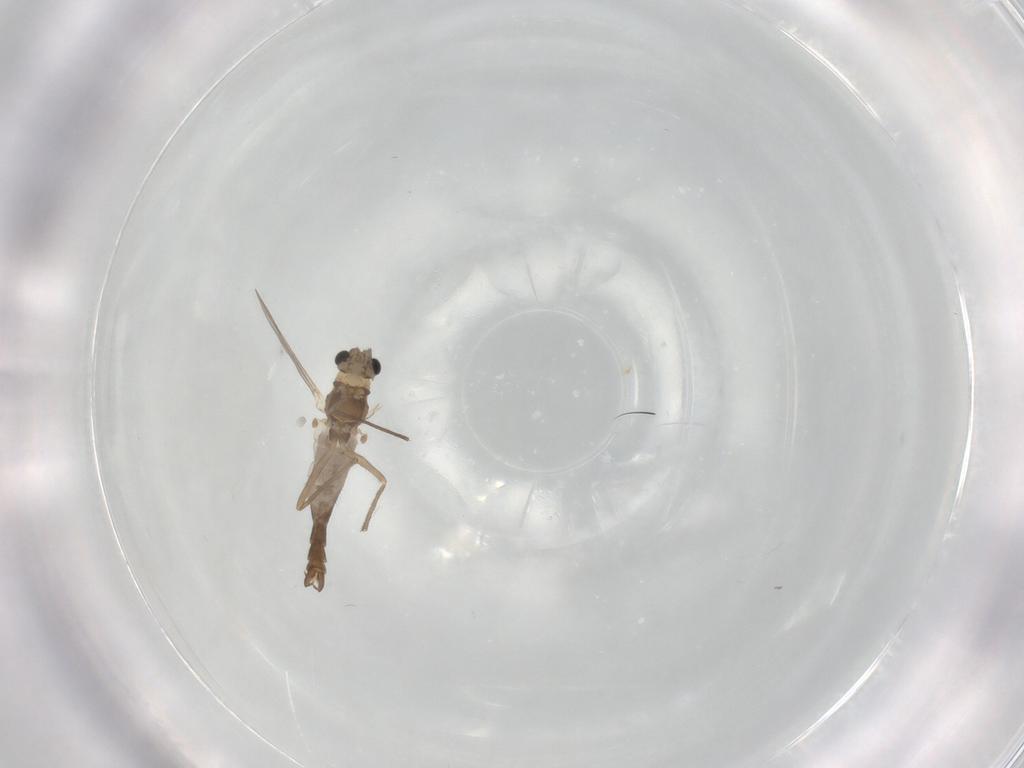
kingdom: Animalia
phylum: Arthropoda
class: Insecta
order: Diptera
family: Chironomidae
